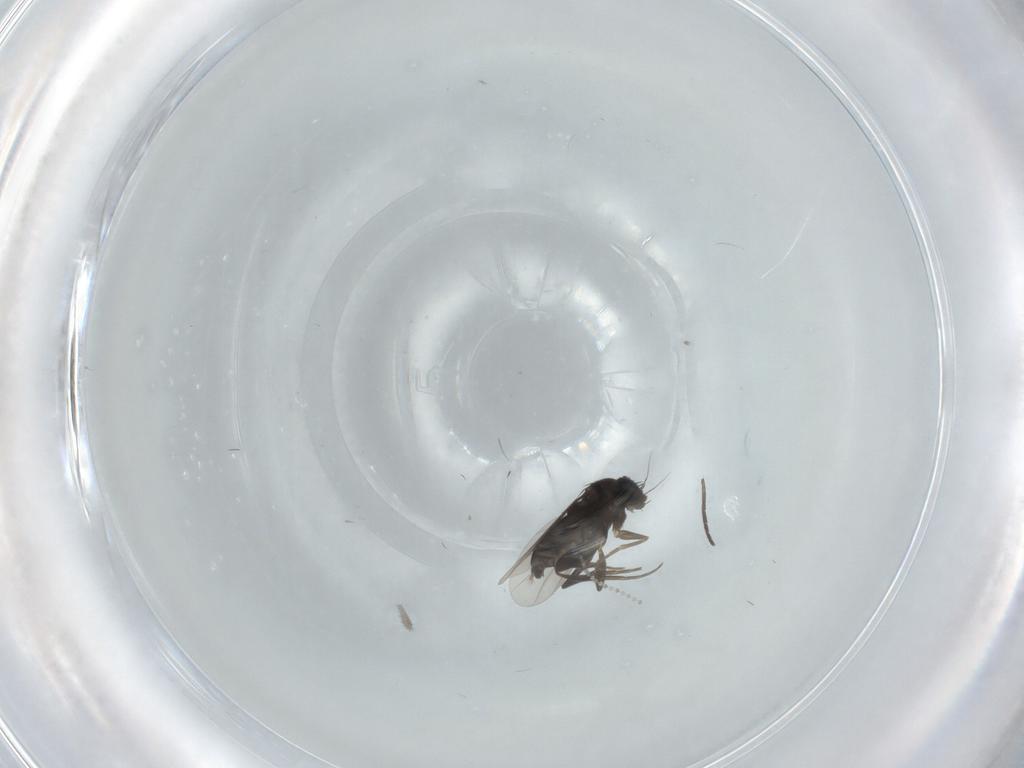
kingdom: Animalia
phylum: Arthropoda
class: Insecta
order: Diptera
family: Cecidomyiidae
